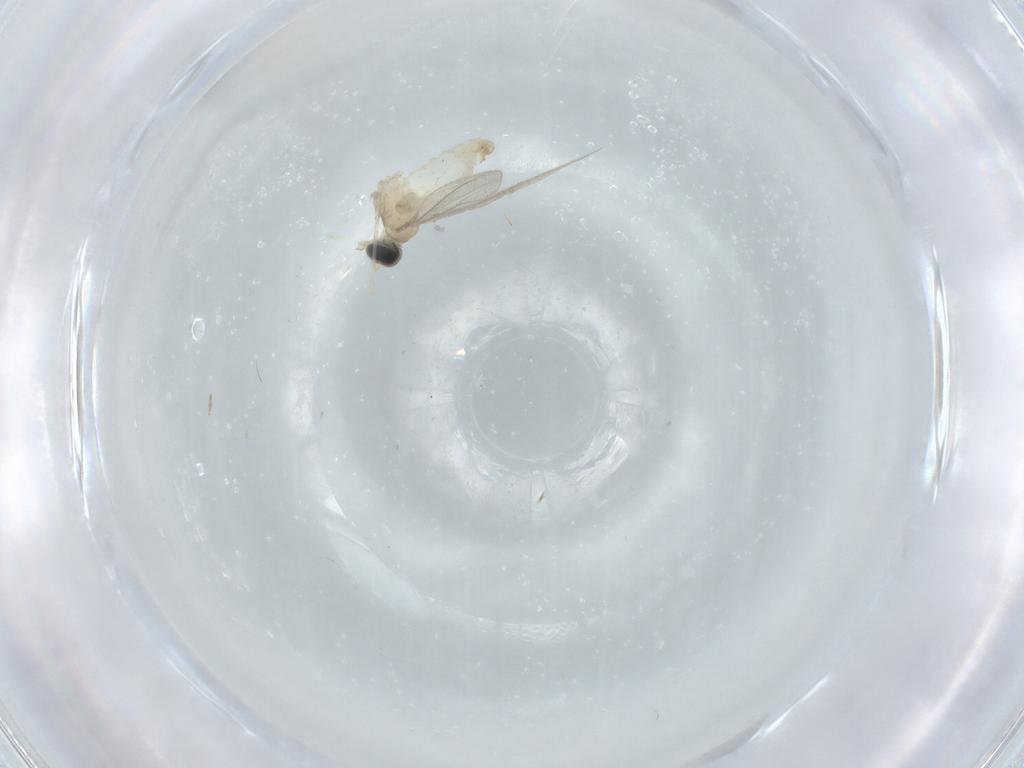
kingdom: Animalia
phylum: Arthropoda
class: Insecta
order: Diptera
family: Cecidomyiidae
